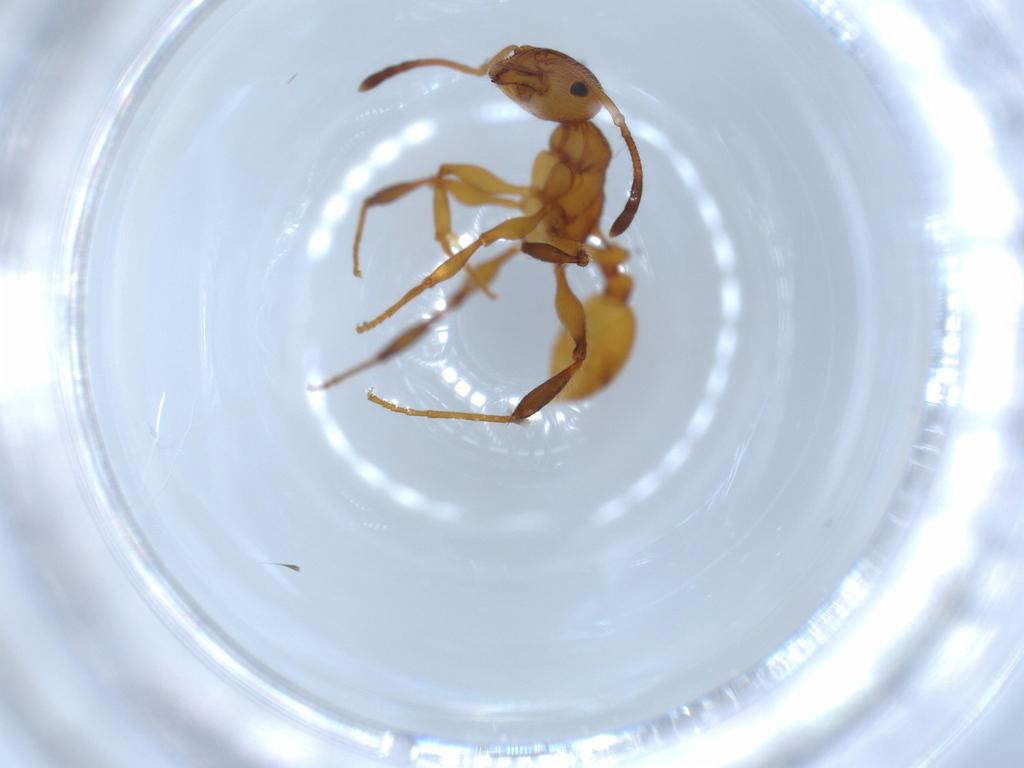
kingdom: Animalia
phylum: Arthropoda
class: Insecta
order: Hymenoptera
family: Formicidae
